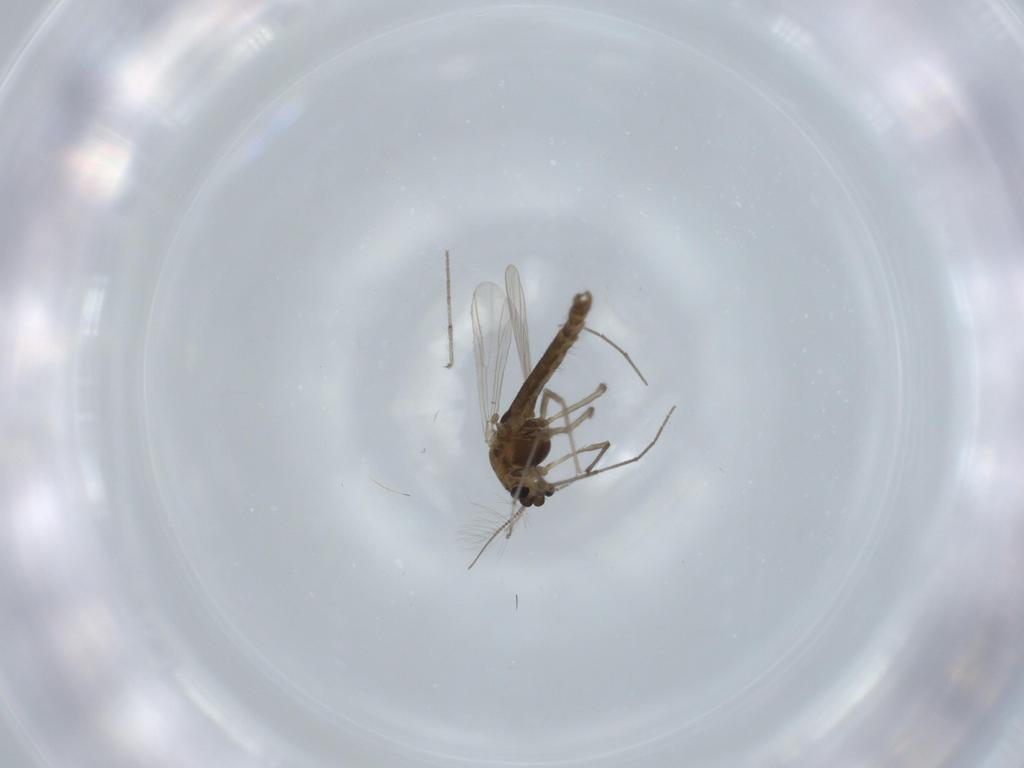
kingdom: Animalia
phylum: Arthropoda
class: Insecta
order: Diptera
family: Chironomidae
